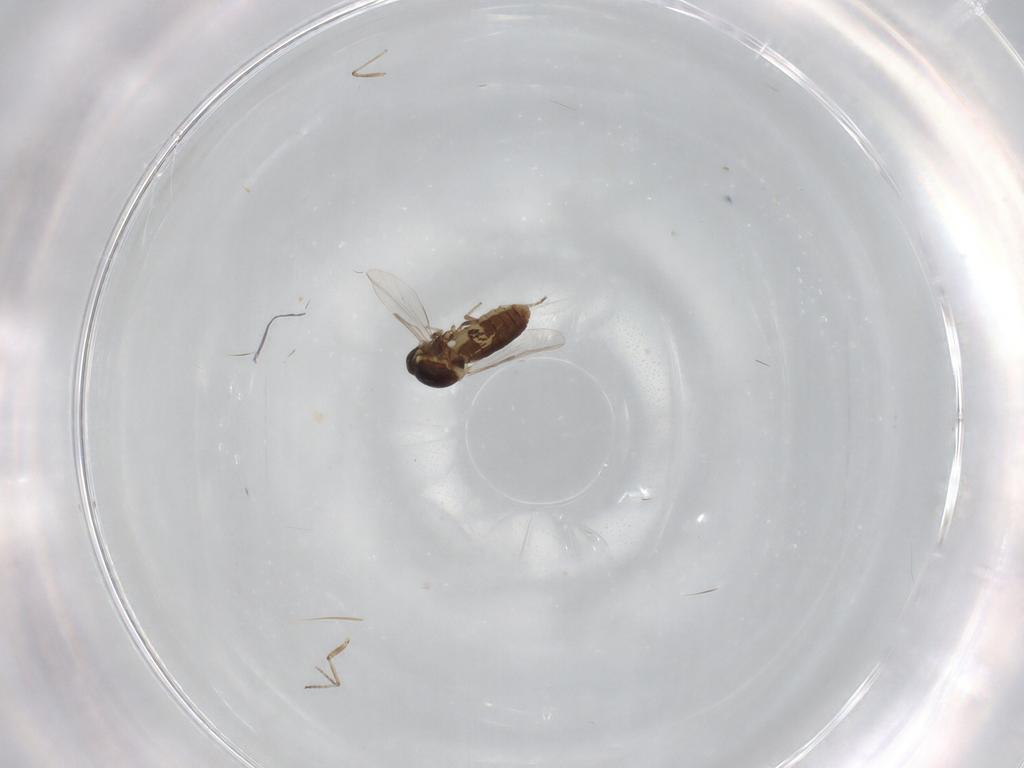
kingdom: Animalia
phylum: Arthropoda
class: Insecta
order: Diptera
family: Ceratopogonidae
